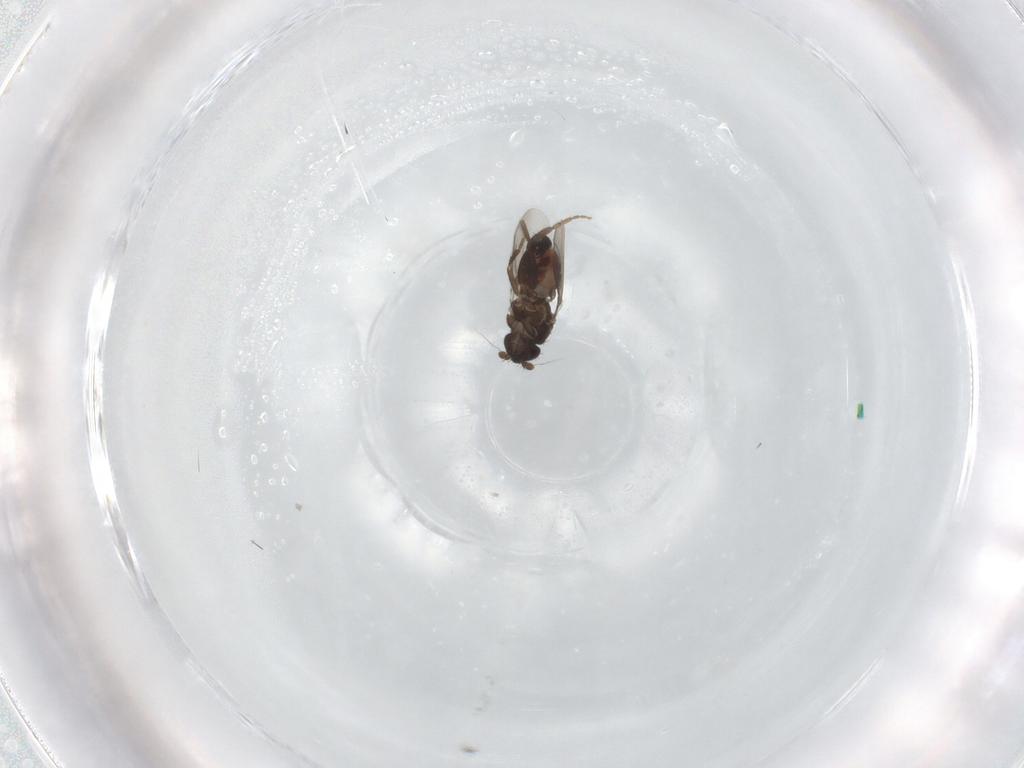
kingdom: Animalia
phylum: Arthropoda
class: Insecta
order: Diptera
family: Sphaeroceridae
